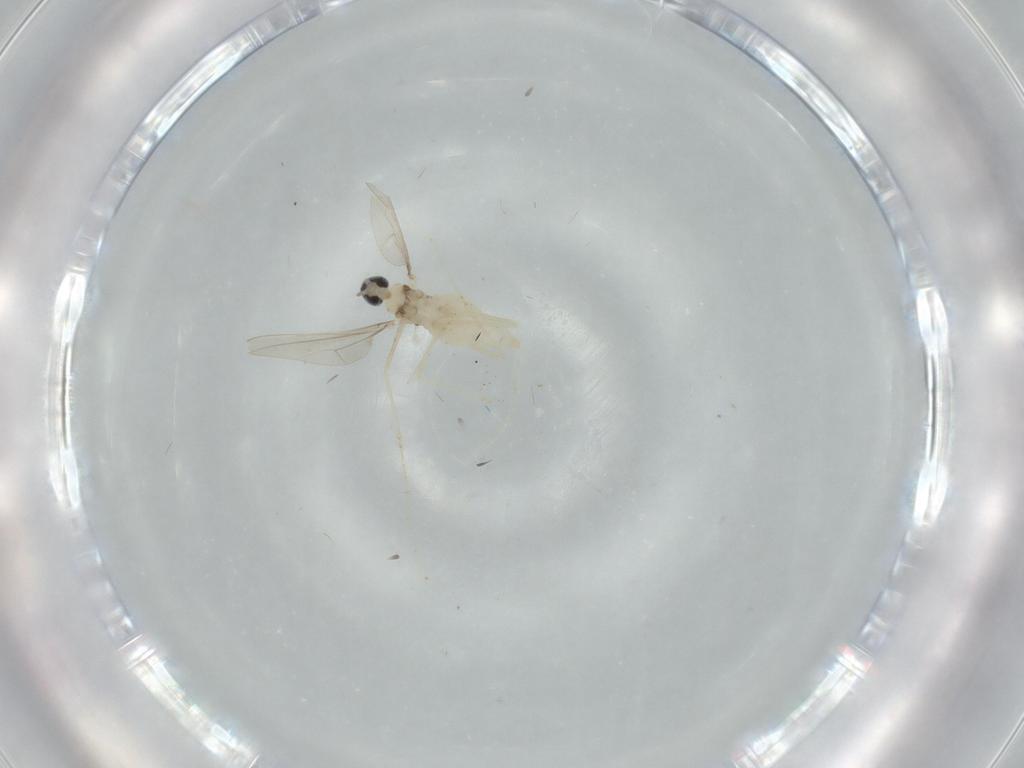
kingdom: Animalia
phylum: Arthropoda
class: Insecta
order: Diptera
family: Cecidomyiidae
